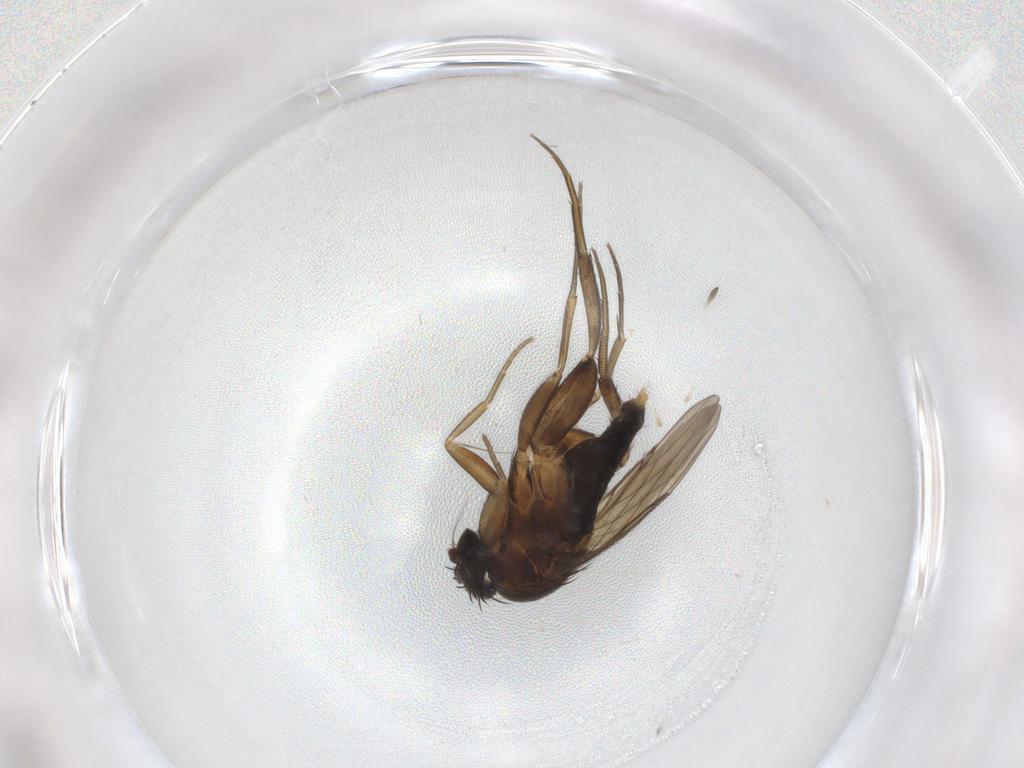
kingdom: Animalia
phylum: Arthropoda
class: Insecta
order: Diptera
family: Phoridae
